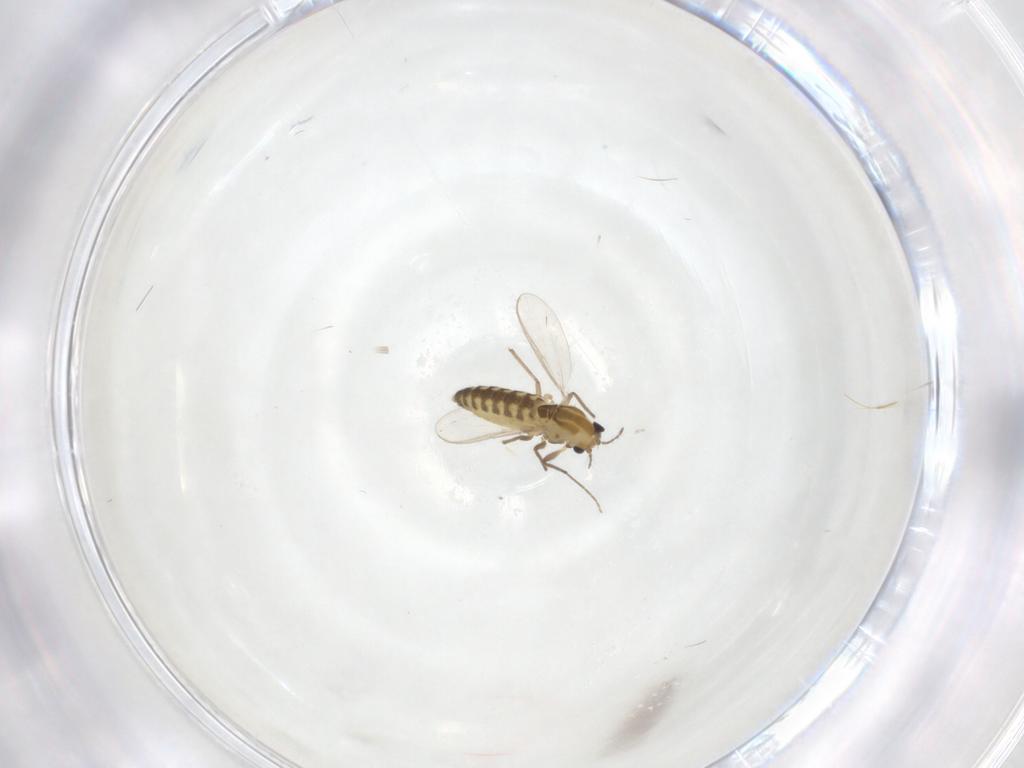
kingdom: Animalia
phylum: Arthropoda
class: Insecta
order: Diptera
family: Chironomidae
